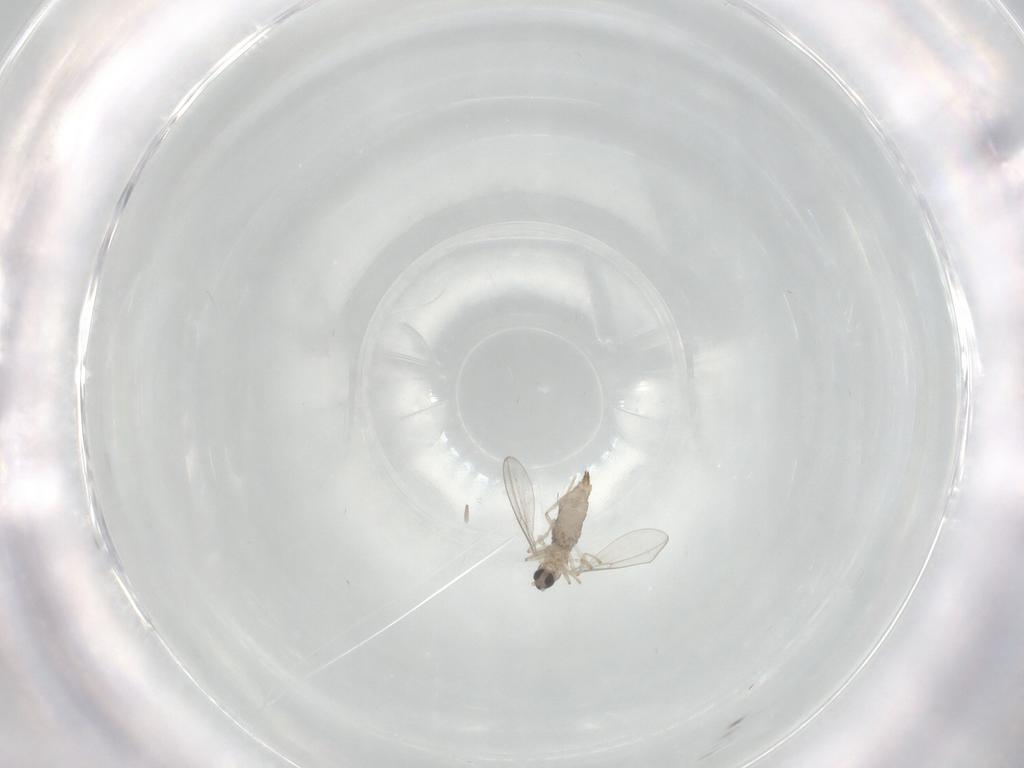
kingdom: Animalia
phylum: Arthropoda
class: Insecta
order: Diptera
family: Cecidomyiidae
